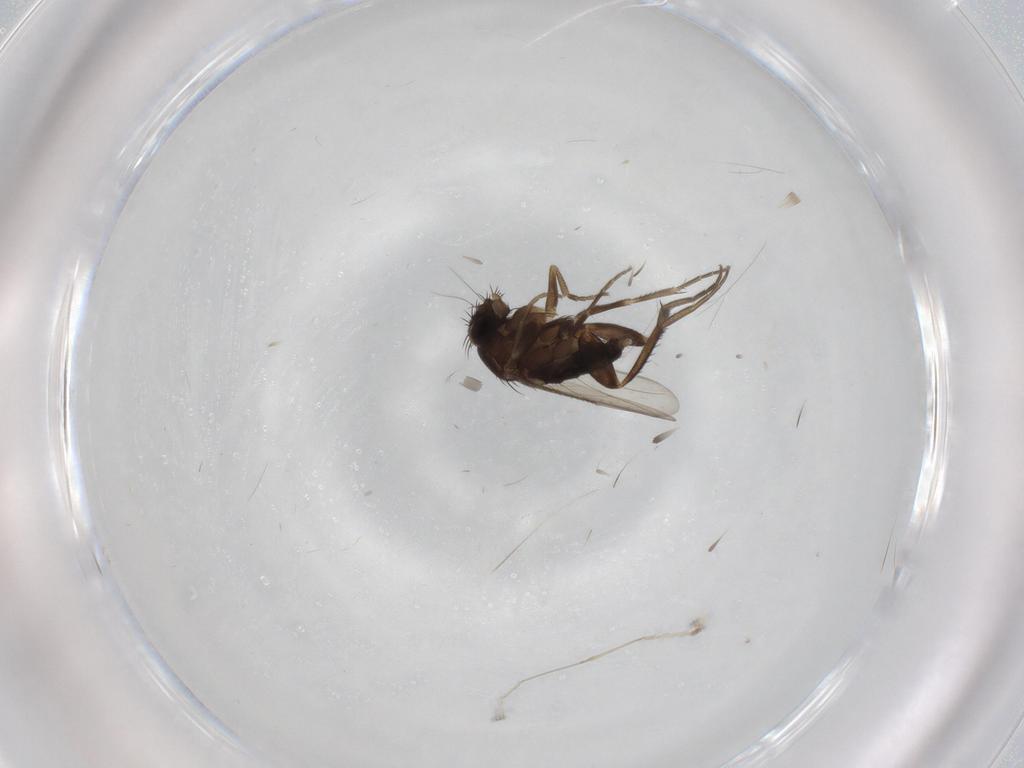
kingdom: Animalia
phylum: Arthropoda
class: Insecta
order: Diptera
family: Phoridae
